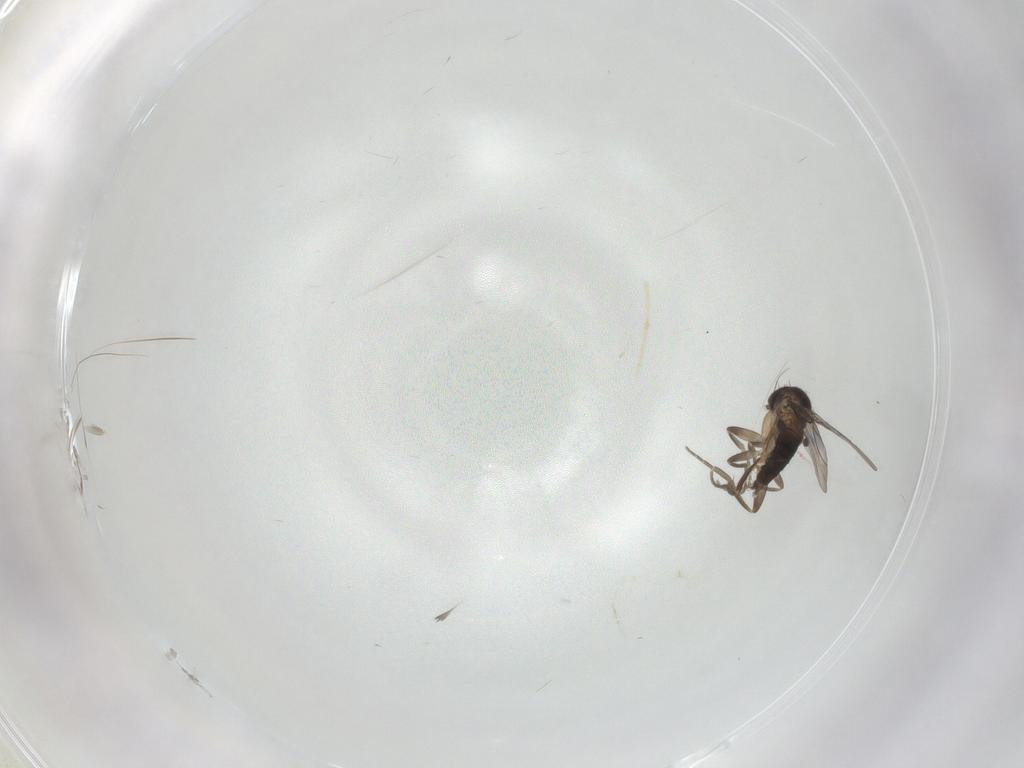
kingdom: Animalia
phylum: Arthropoda
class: Insecta
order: Diptera
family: Phoridae
